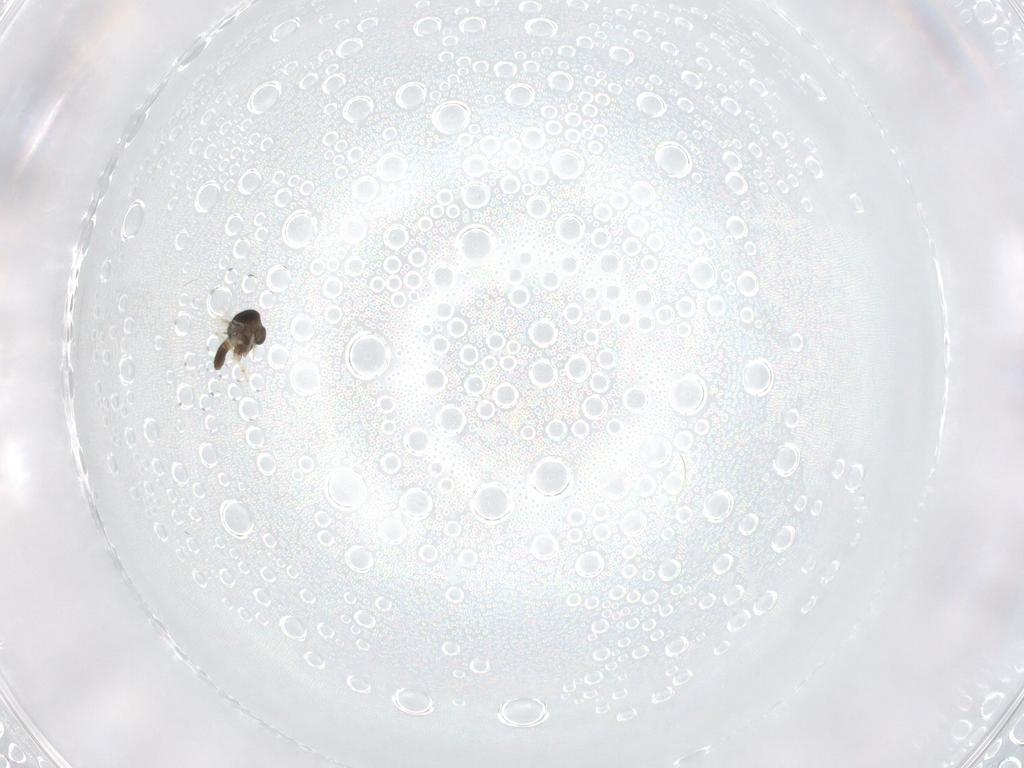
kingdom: Animalia
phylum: Arthropoda
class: Insecta
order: Diptera
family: Chironomidae
